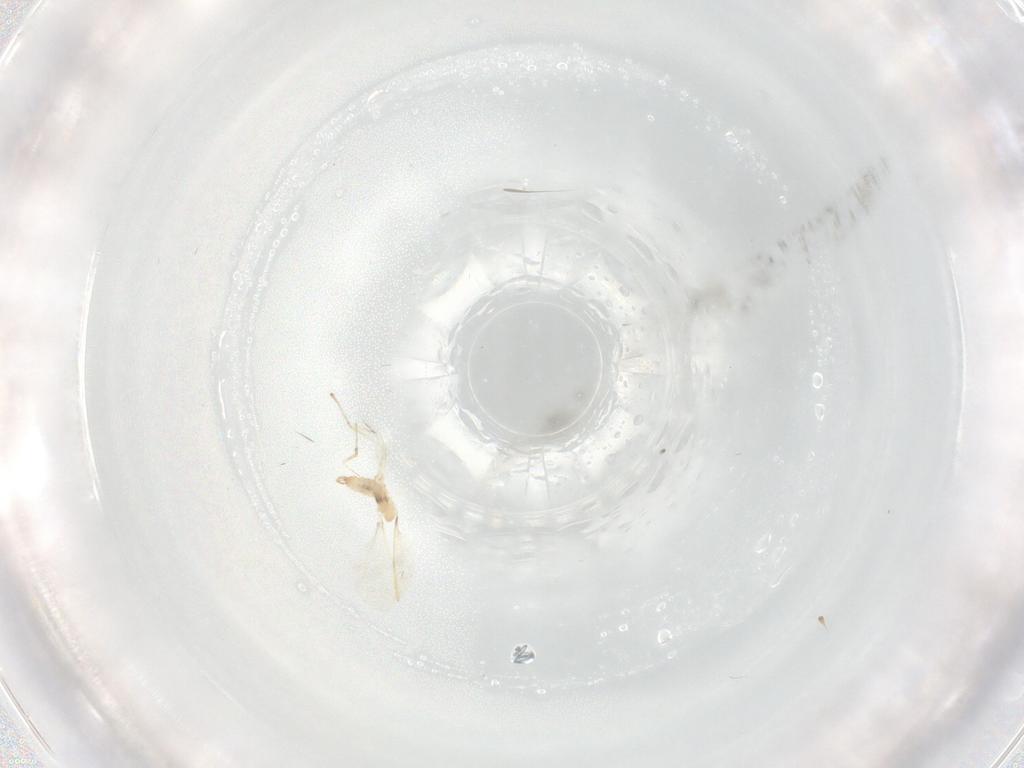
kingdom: Animalia
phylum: Arthropoda
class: Insecta
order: Diptera
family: Cecidomyiidae
